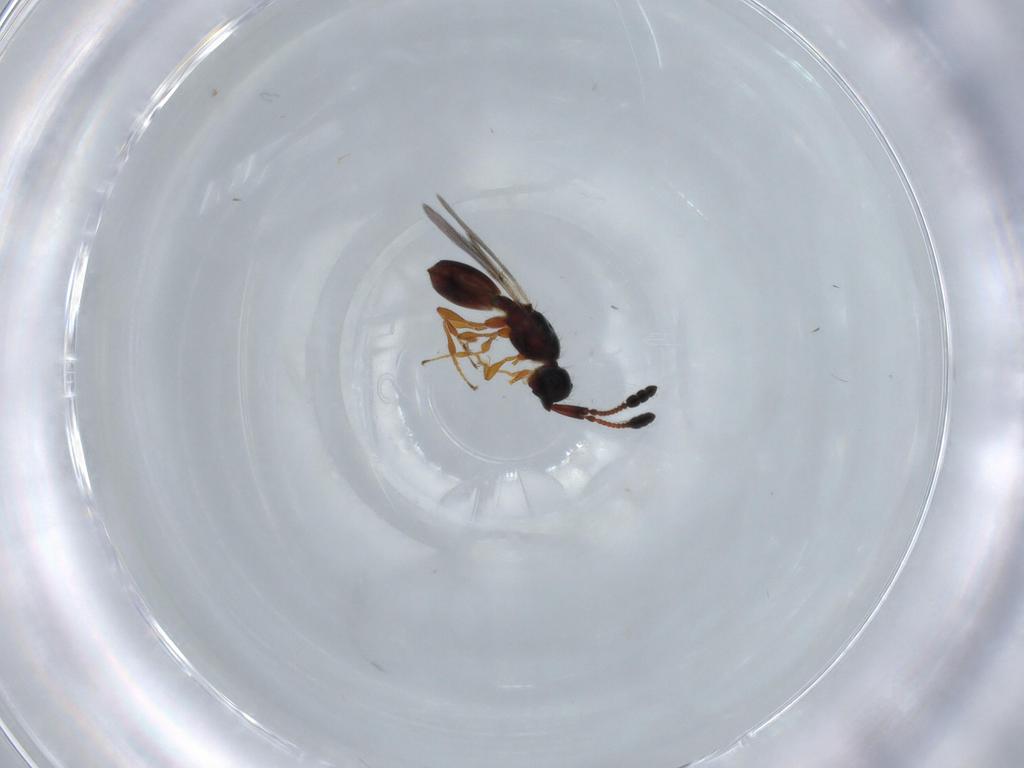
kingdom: Animalia
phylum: Arthropoda
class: Insecta
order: Hymenoptera
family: Diapriidae
